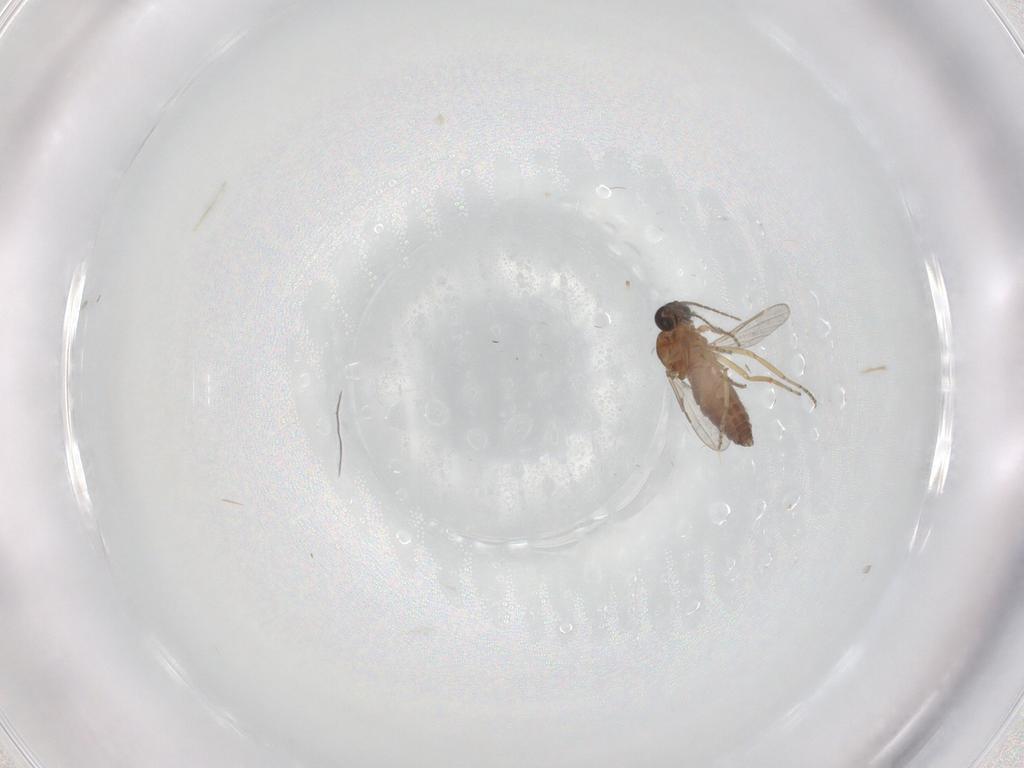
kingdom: Animalia
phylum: Arthropoda
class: Insecta
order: Diptera
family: Ceratopogonidae
